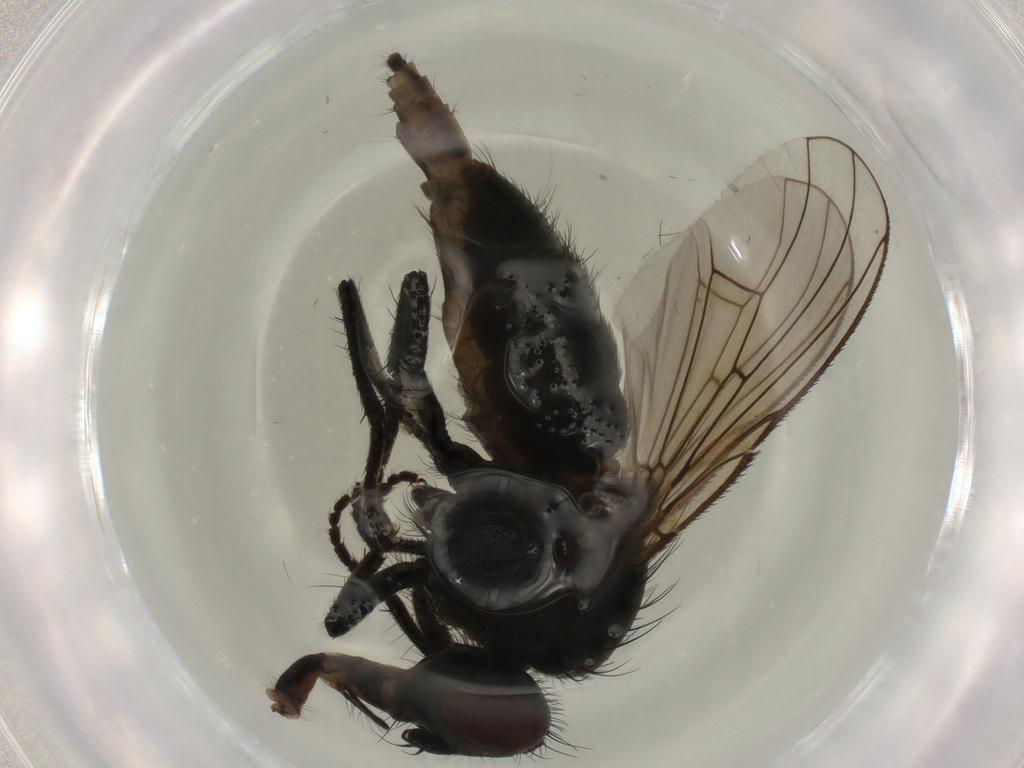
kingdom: Animalia
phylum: Arthropoda
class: Insecta
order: Diptera
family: Muscidae
